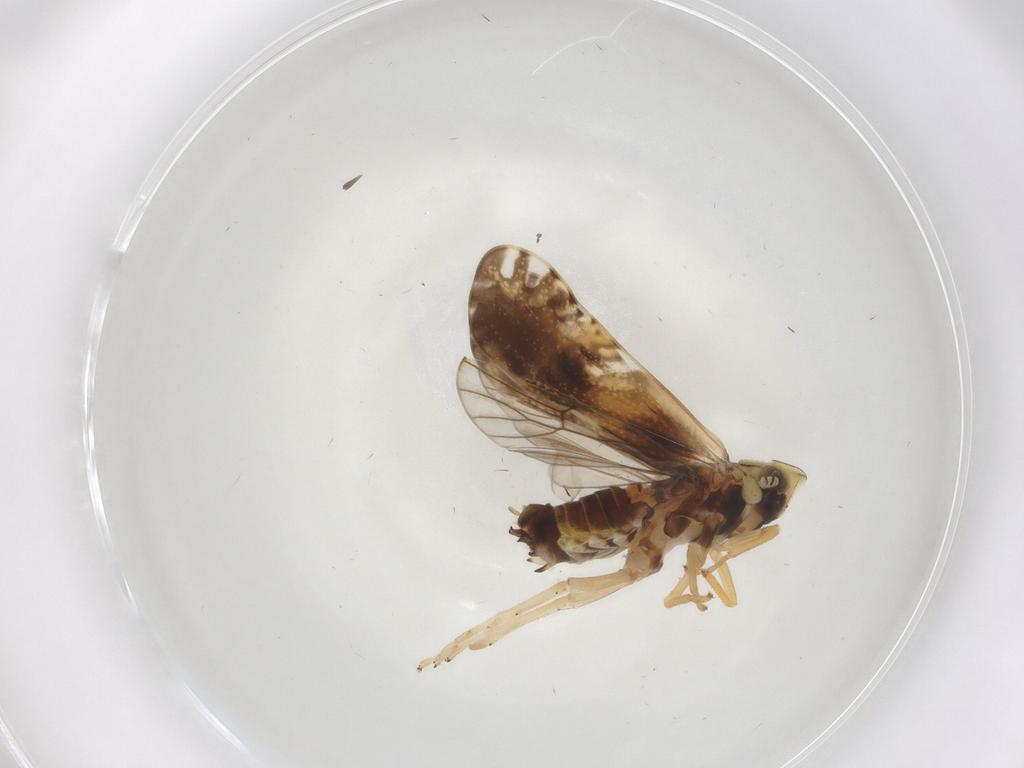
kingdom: Animalia
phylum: Arthropoda
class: Insecta
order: Hemiptera
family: Delphacidae
